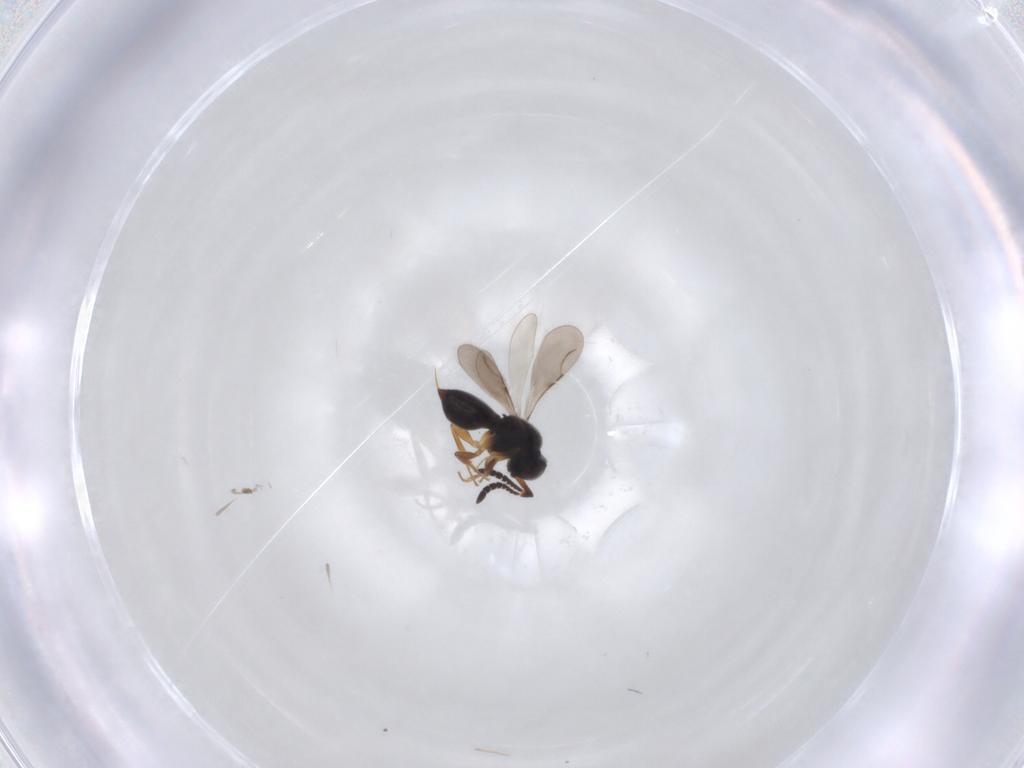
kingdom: Animalia
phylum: Arthropoda
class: Insecta
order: Hymenoptera
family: Ceraphronidae
